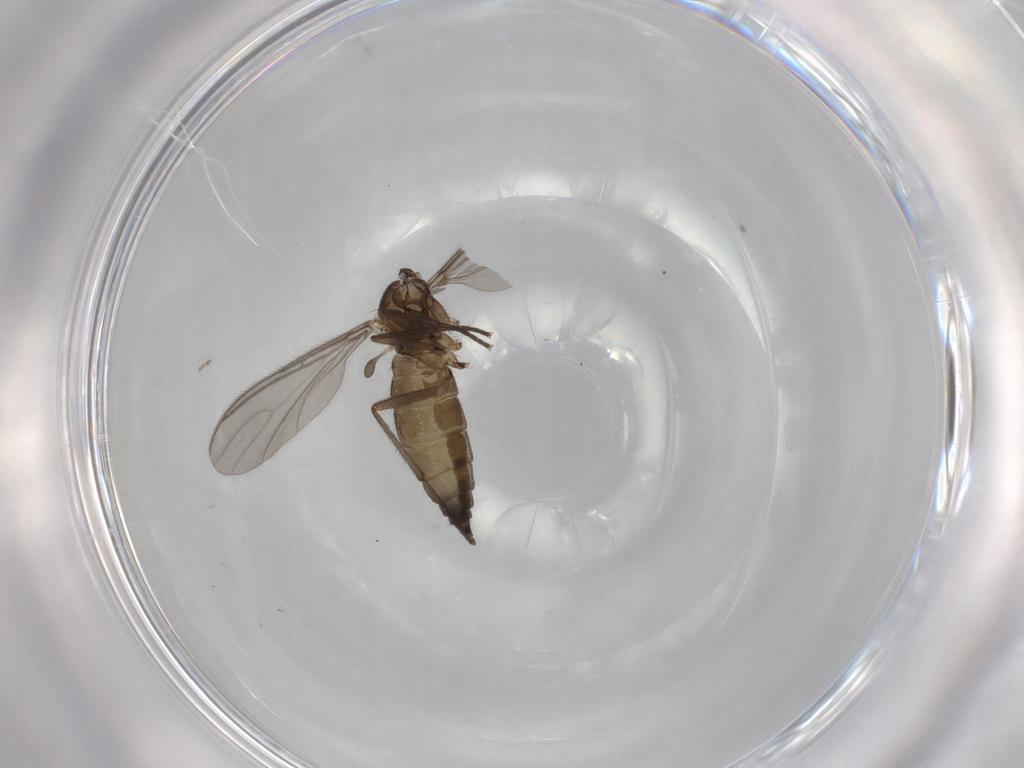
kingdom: Animalia
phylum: Arthropoda
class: Insecta
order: Diptera
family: Sciaridae
